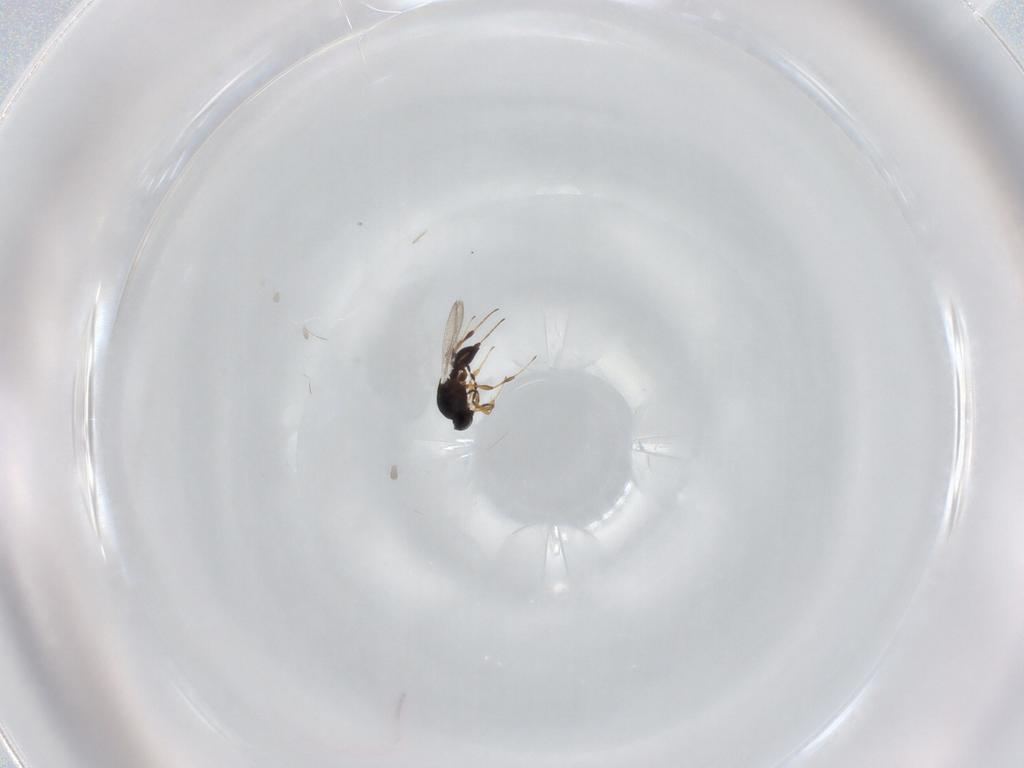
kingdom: Animalia
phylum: Arthropoda
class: Insecta
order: Hymenoptera
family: Platygastridae
